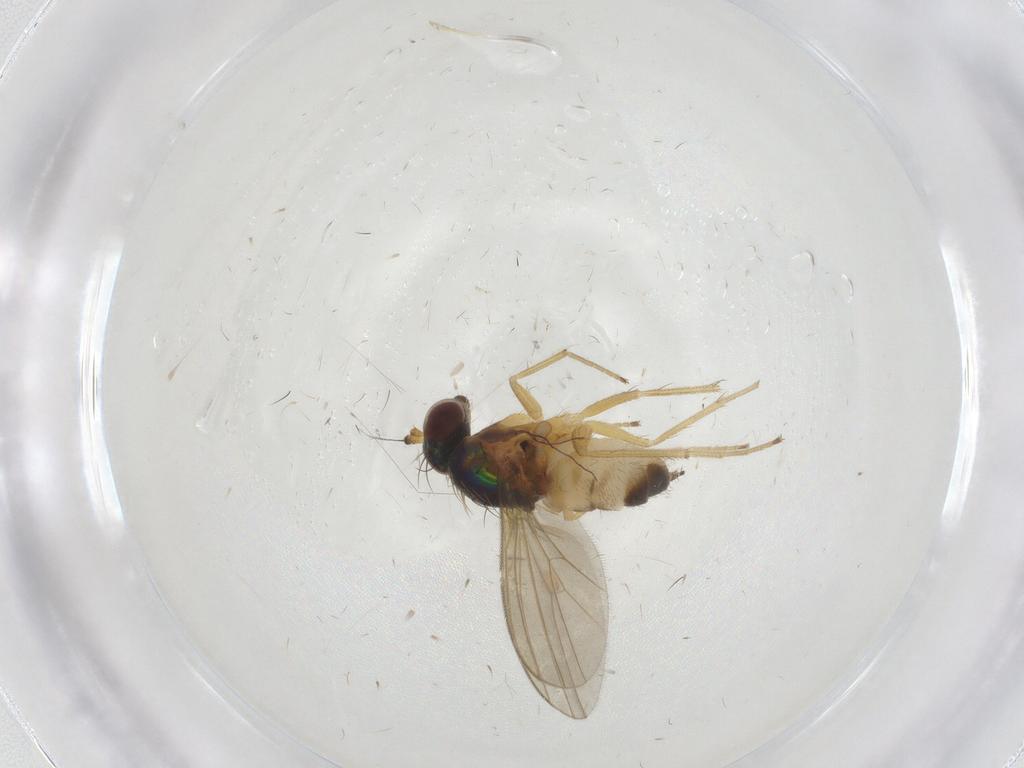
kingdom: Animalia
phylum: Arthropoda
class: Insecta
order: Diptera
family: Dolichopodidae
